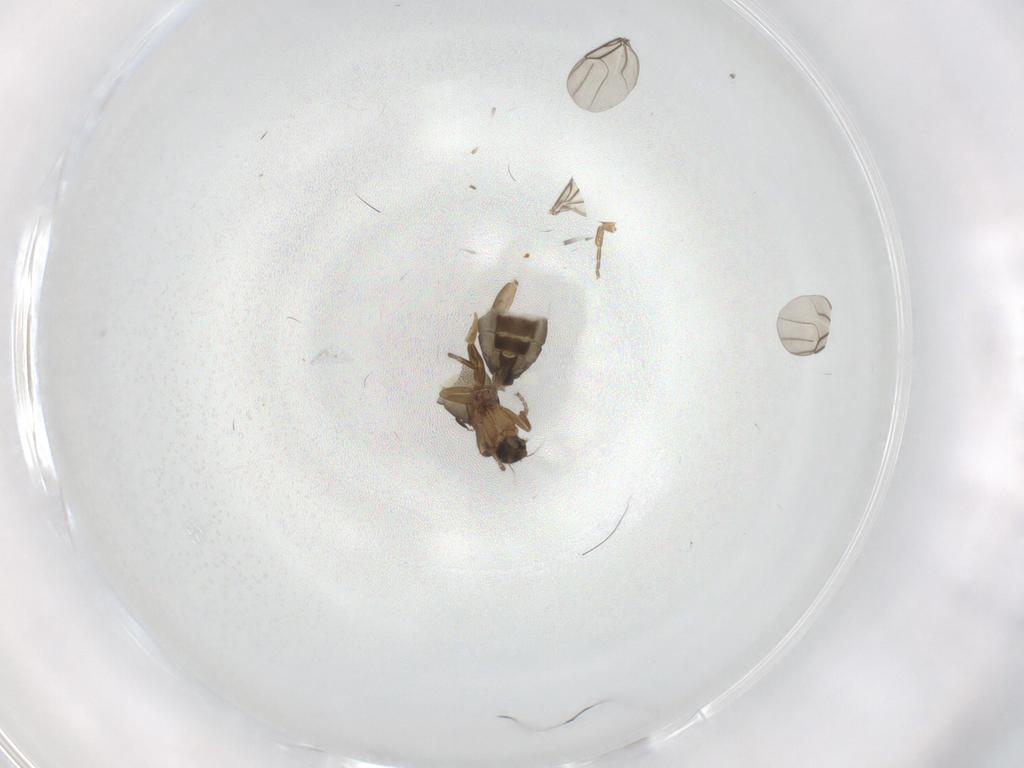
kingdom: Animalia
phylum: Arthropoda
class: Insecta
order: Diptera
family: Phoridae
